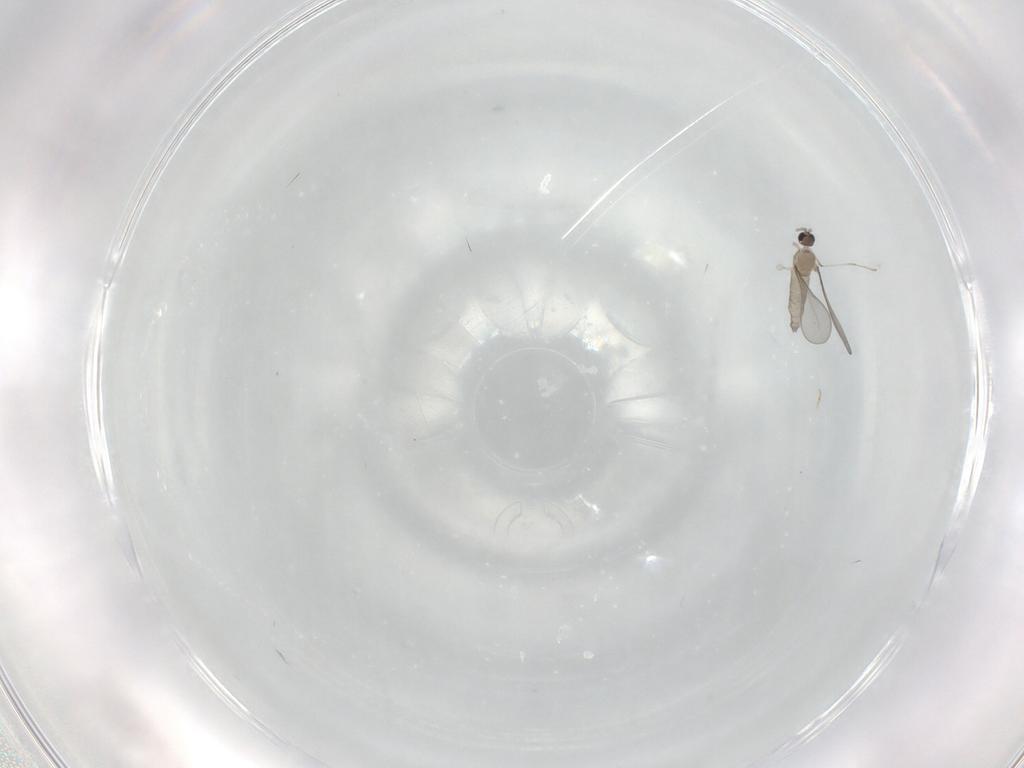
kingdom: Animalia
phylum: Arthropoda
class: Insecta
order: Diptera
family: Cecidomyiidae
